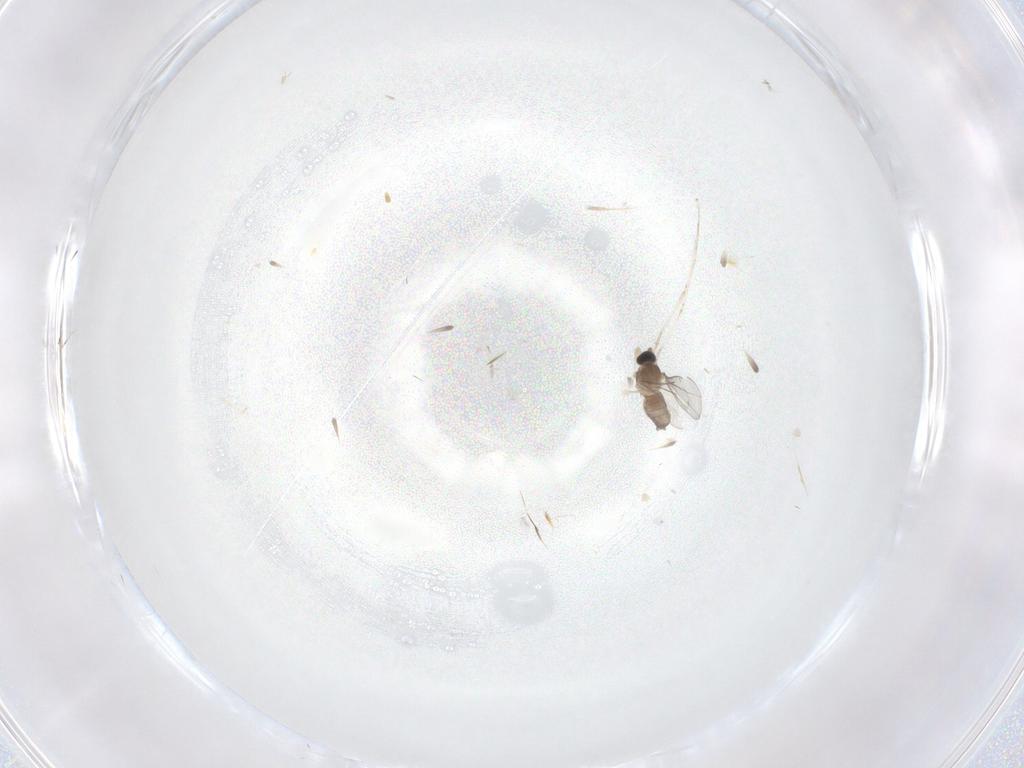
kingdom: Animalia
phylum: Arthropoda
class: Insecta
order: Diptera
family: Cecidomyiidae
